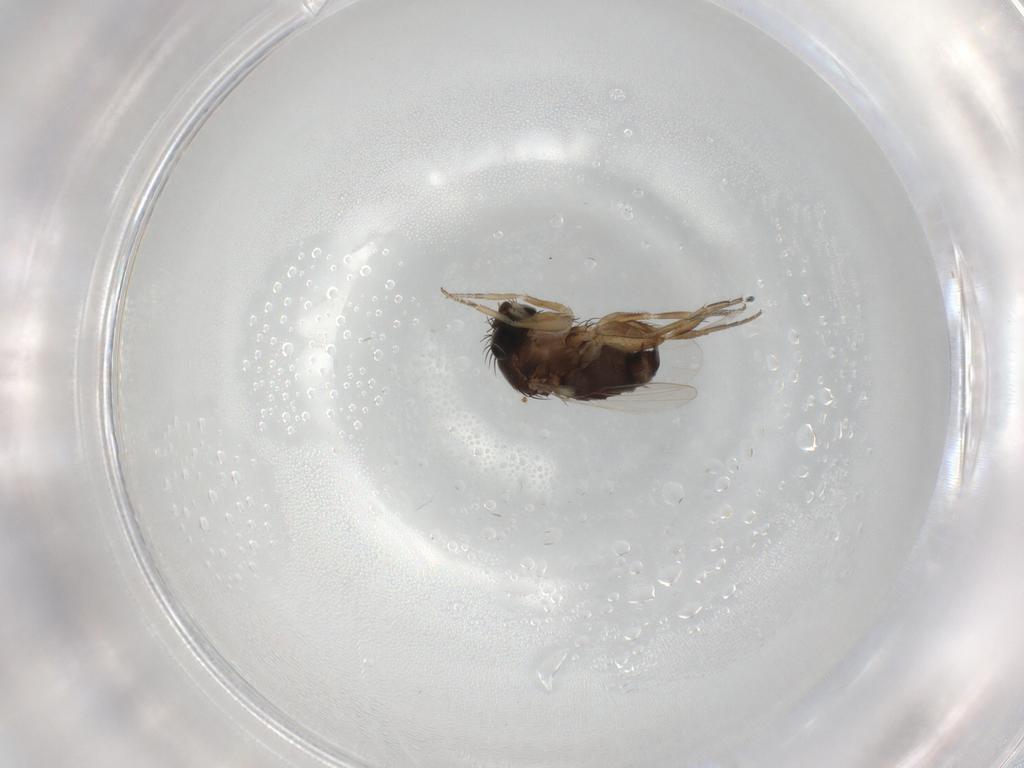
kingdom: Animalia
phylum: Arthropoda
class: Insecta
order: Diptera
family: Cecidomyiidae
